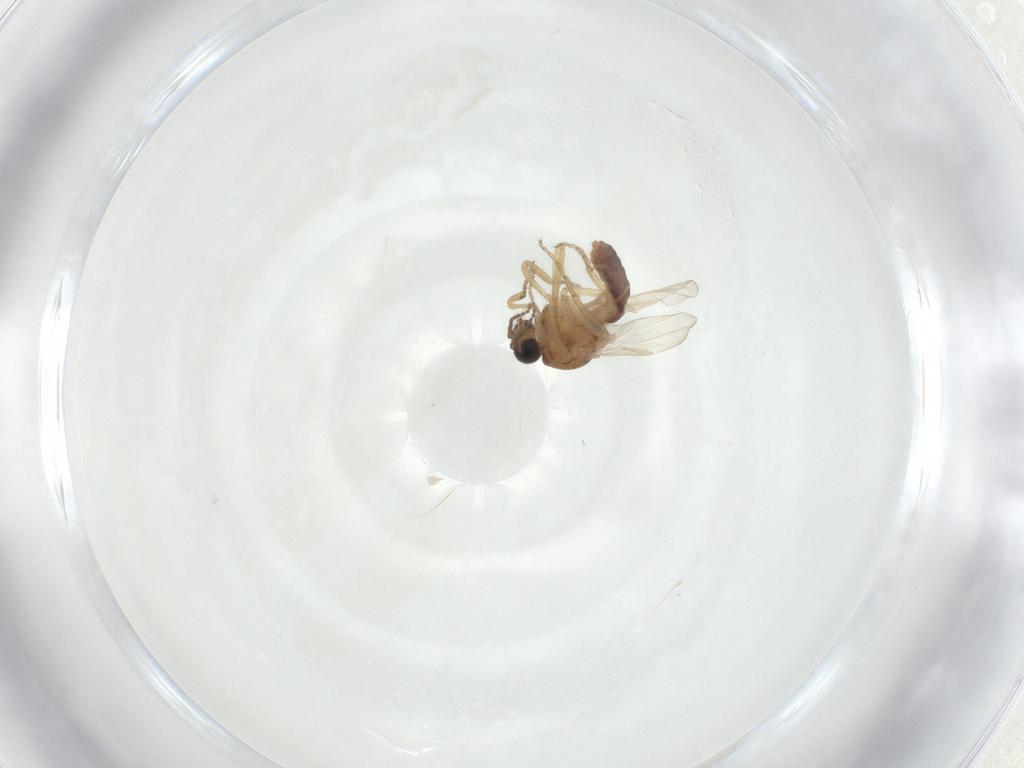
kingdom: Animalia
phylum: Arthropoda
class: Insecta
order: Diptera
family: Ceratopogonidae
